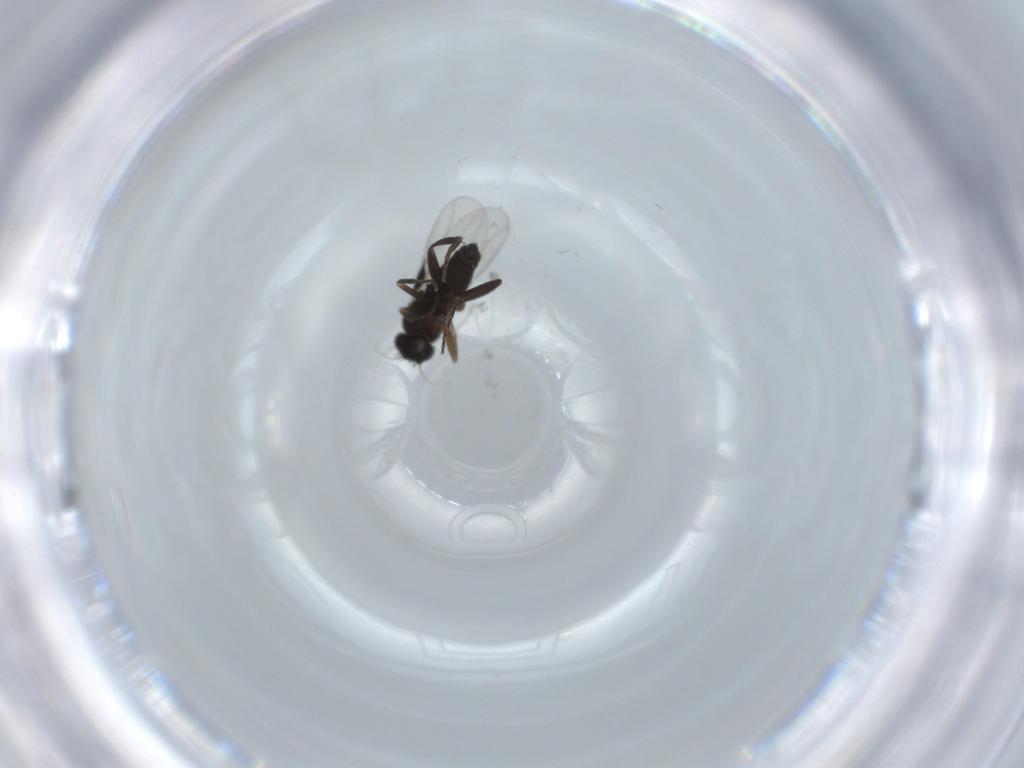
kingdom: Animalia
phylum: Arthropoda
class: Insecta
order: Diptera
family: Phoridae
